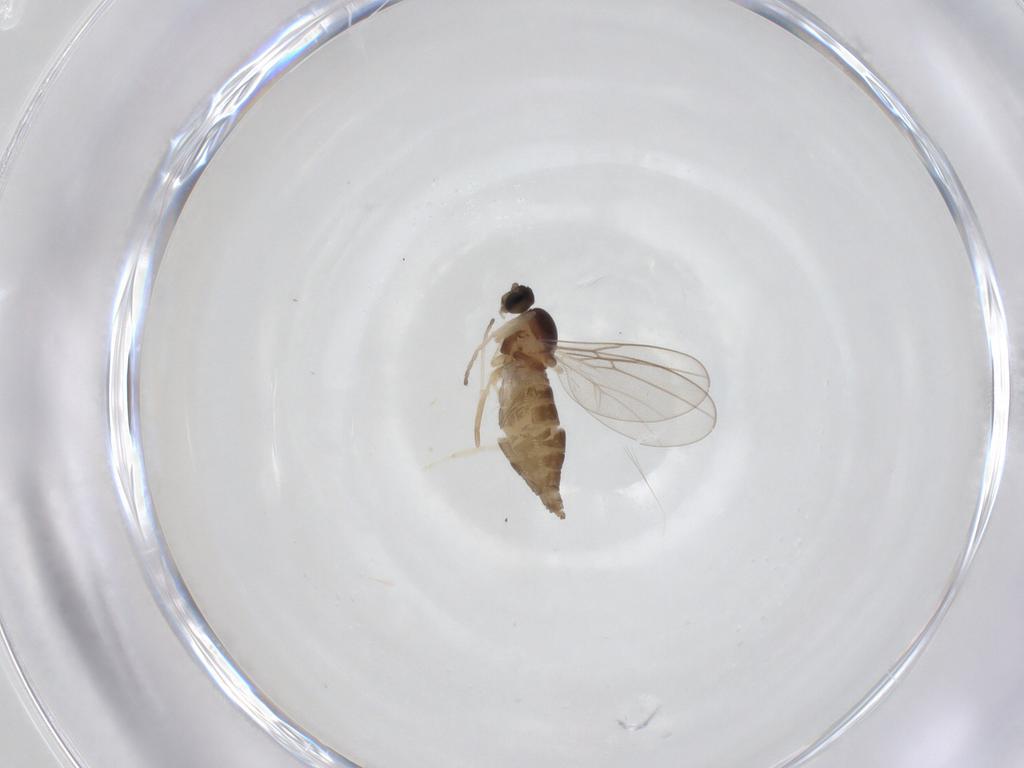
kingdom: Animalia
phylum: Arthropoda
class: Insecta
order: Diptera
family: Cecidomyiidae
